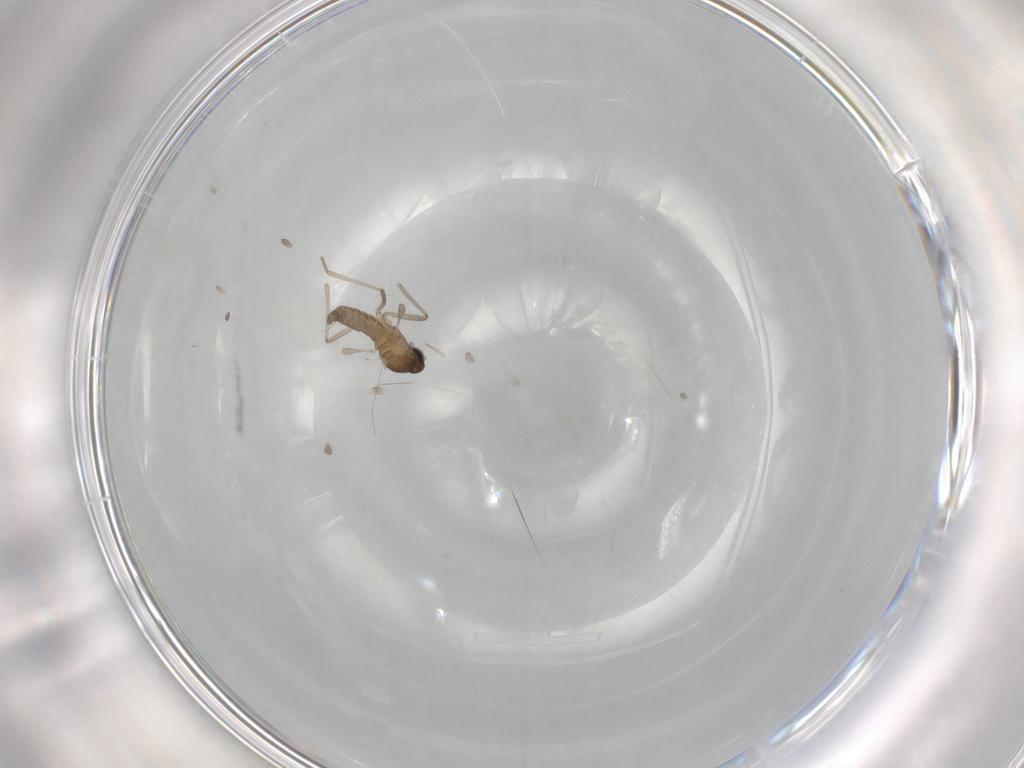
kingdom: Animalia
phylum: Arthropoda
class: Insecta
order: Diptera
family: Chloropidae
